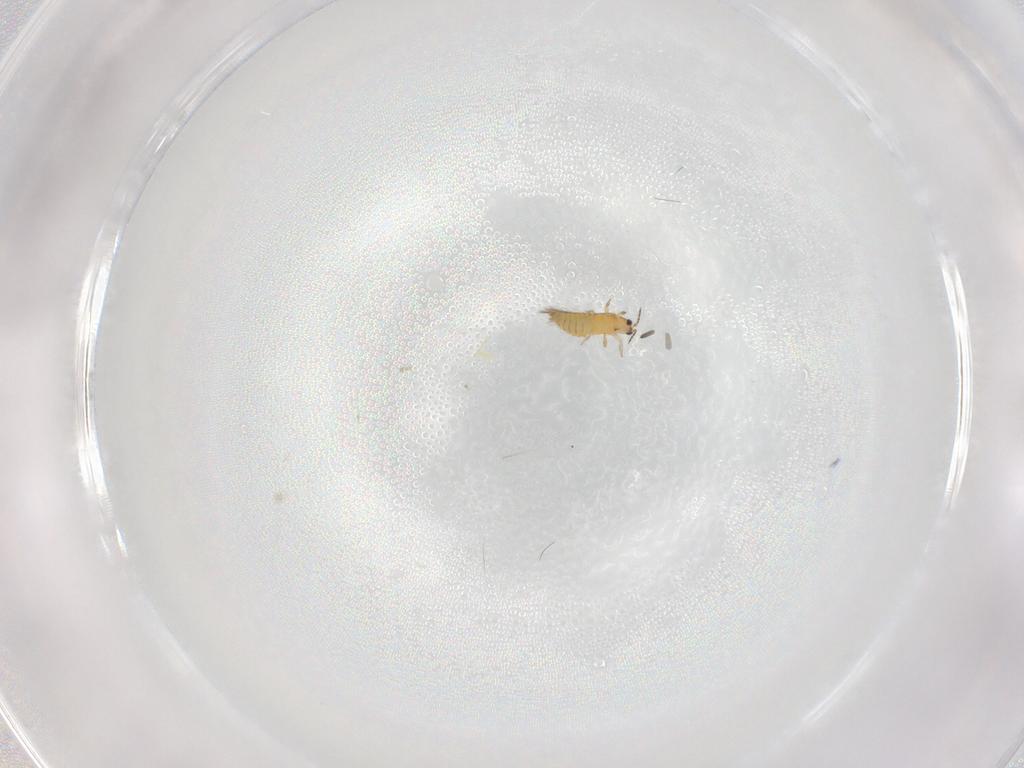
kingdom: Animalia
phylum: Arthropoda
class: Insecta
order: Thysanoptera
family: Thripidae
